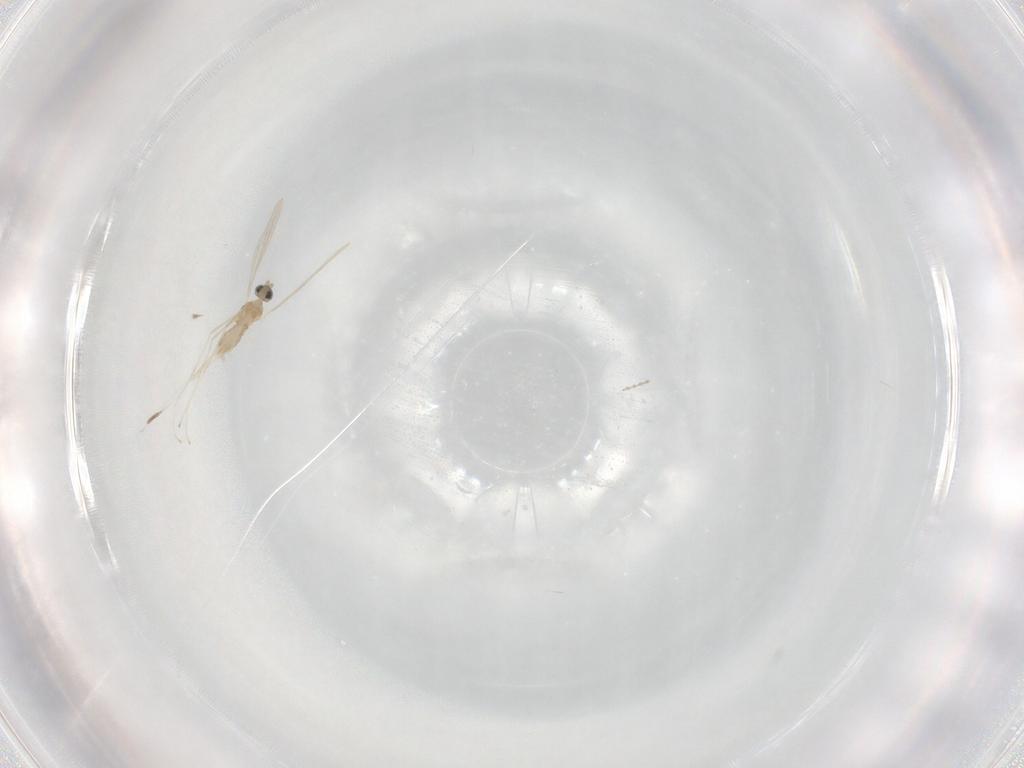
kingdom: Animalia
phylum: Arthropoda
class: Insecta
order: Diptera
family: Cecidomyiidae
